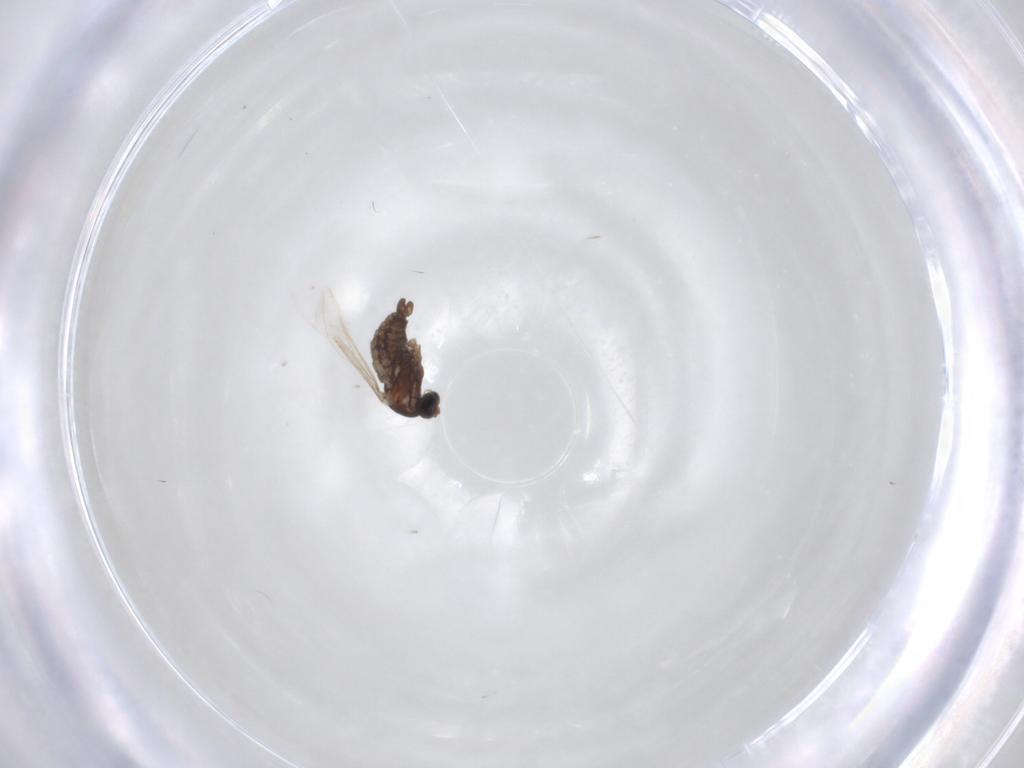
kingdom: Animalia
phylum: Arthropoda
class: Insecta
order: Diptera
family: Cecidomyiidae
